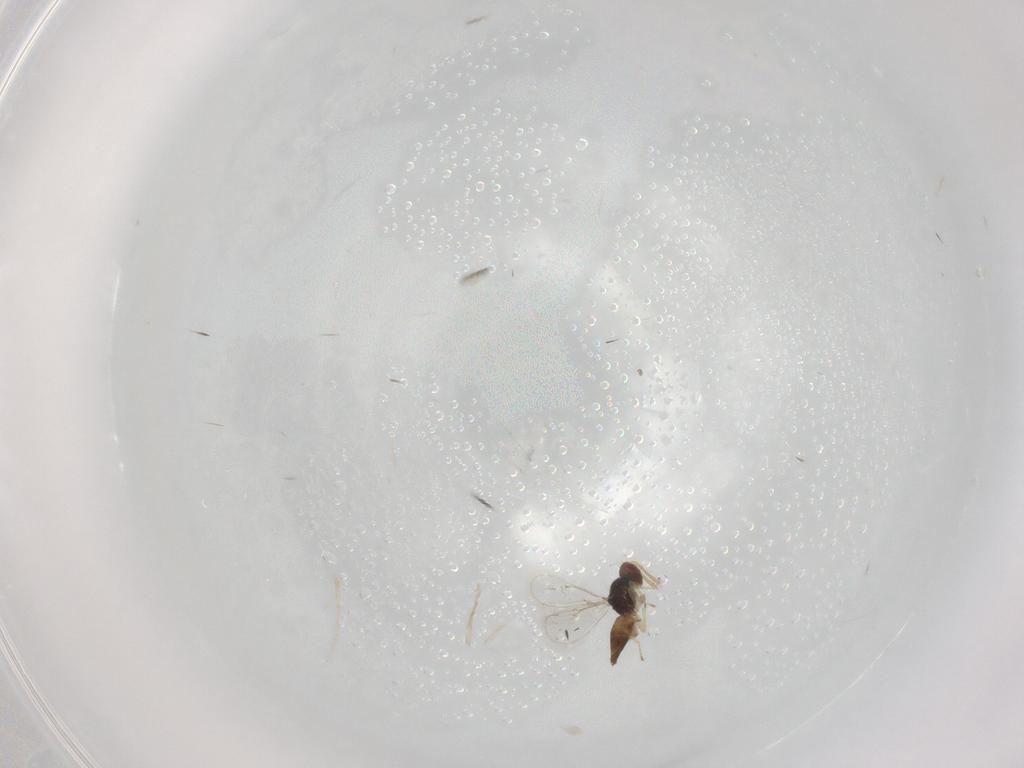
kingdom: Animalia
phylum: Arthropoda
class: Insecta
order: Hymenoptera
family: Eulophidae
